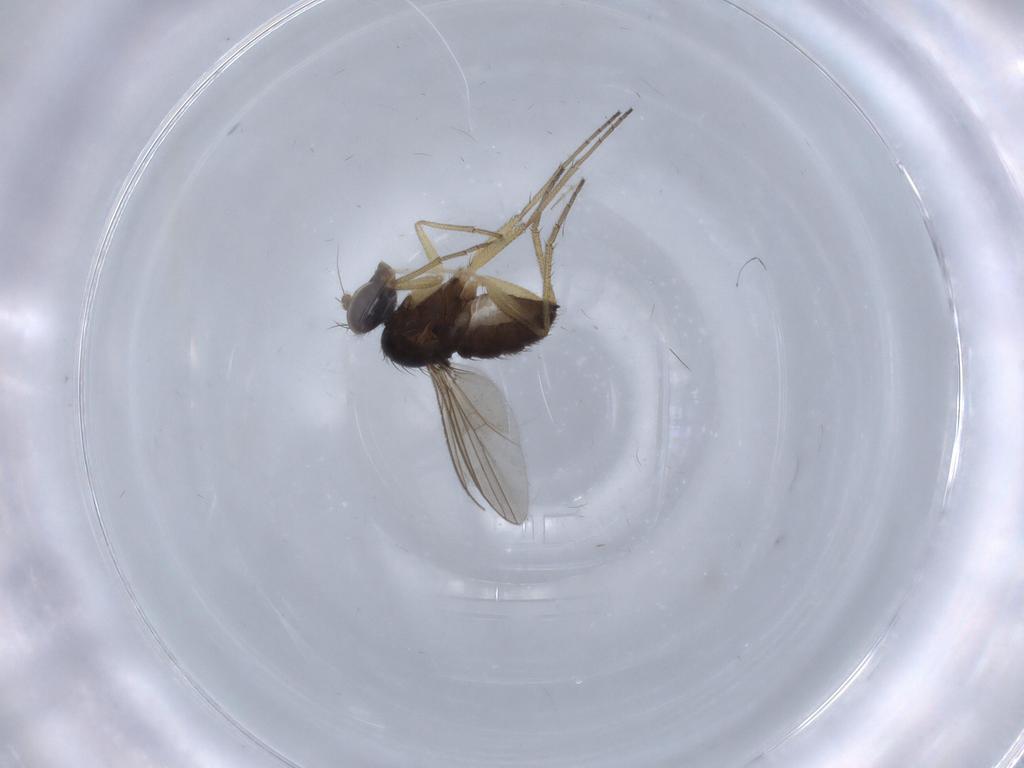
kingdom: Animalia
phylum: Arthropoda
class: Insecta
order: Diptera
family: Dolichopodidae
